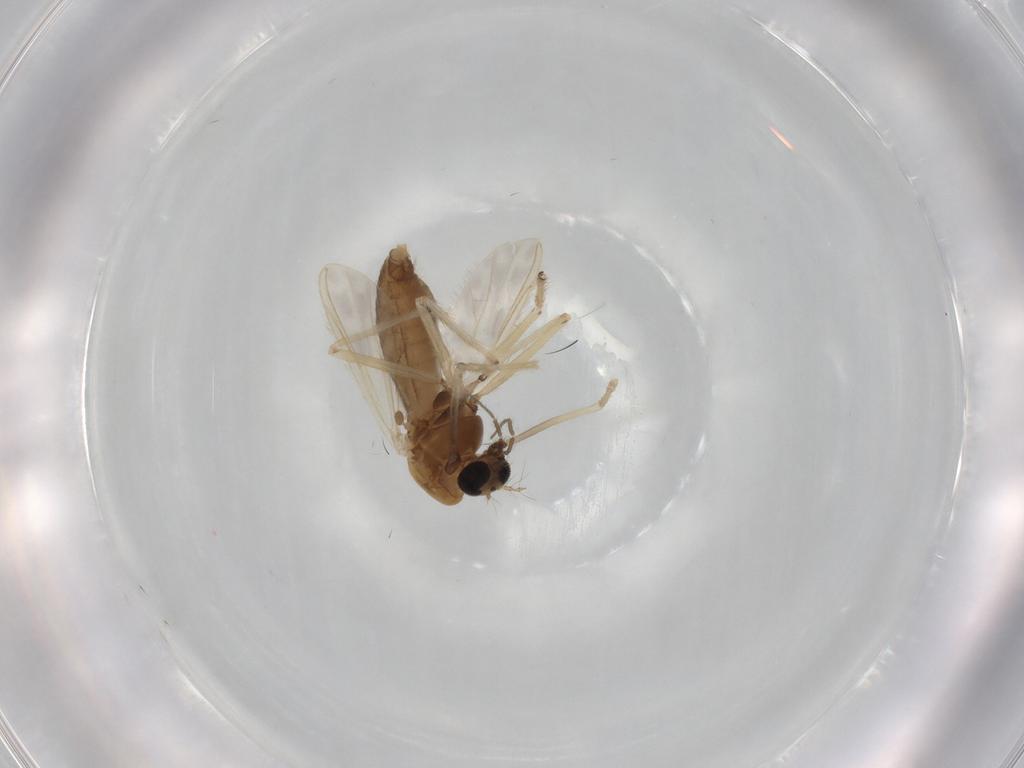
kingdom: Animalia
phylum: Arthropoda
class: Insecta
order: Diptera
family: Chironomidae
